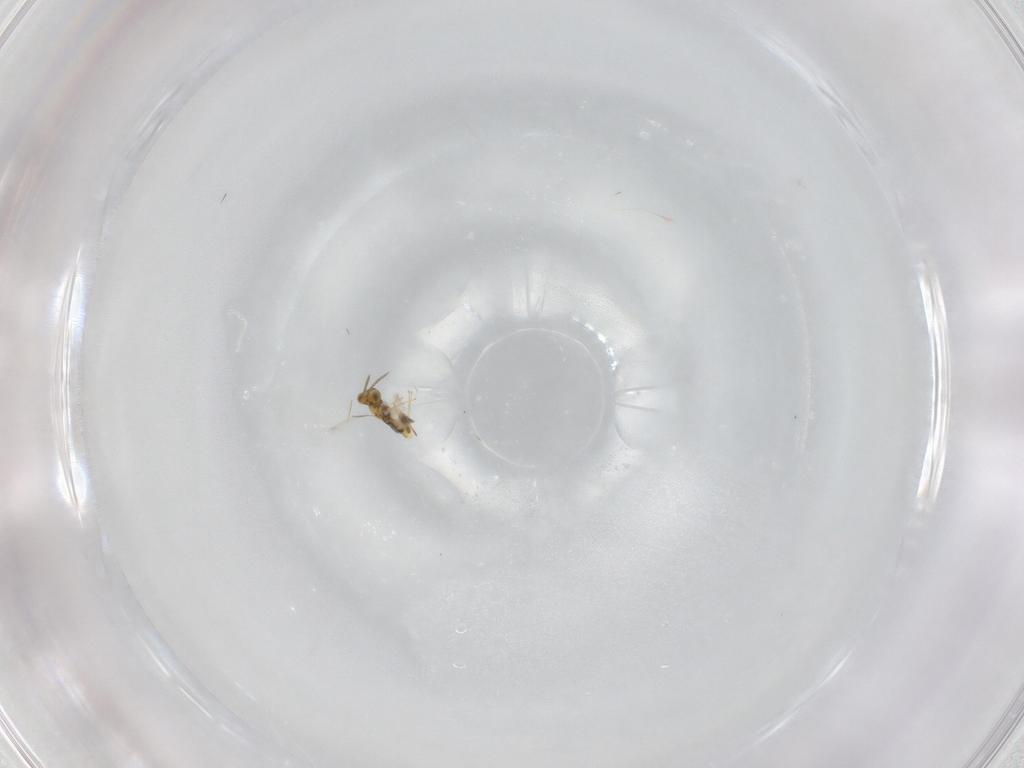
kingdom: Animalia
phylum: Arthropoda
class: Insecta
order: Hymenoptera
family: Aphelinidae
